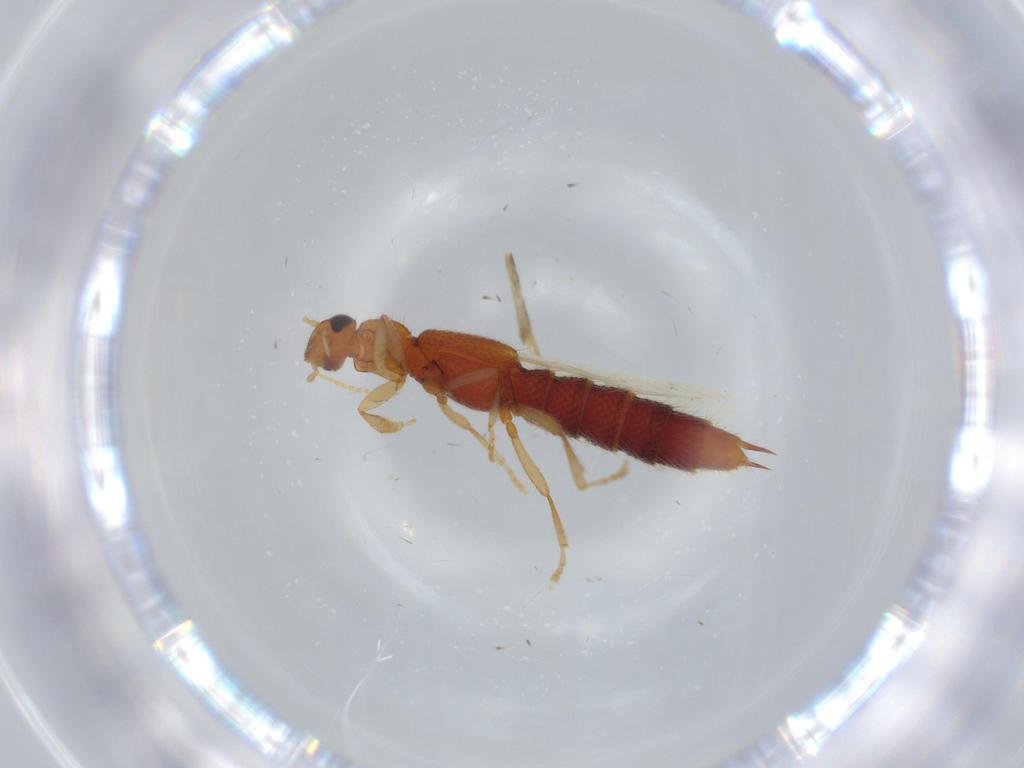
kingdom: Animalia
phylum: Arthropoda
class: Insecta
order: Coleoptera
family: Staphylinidae
